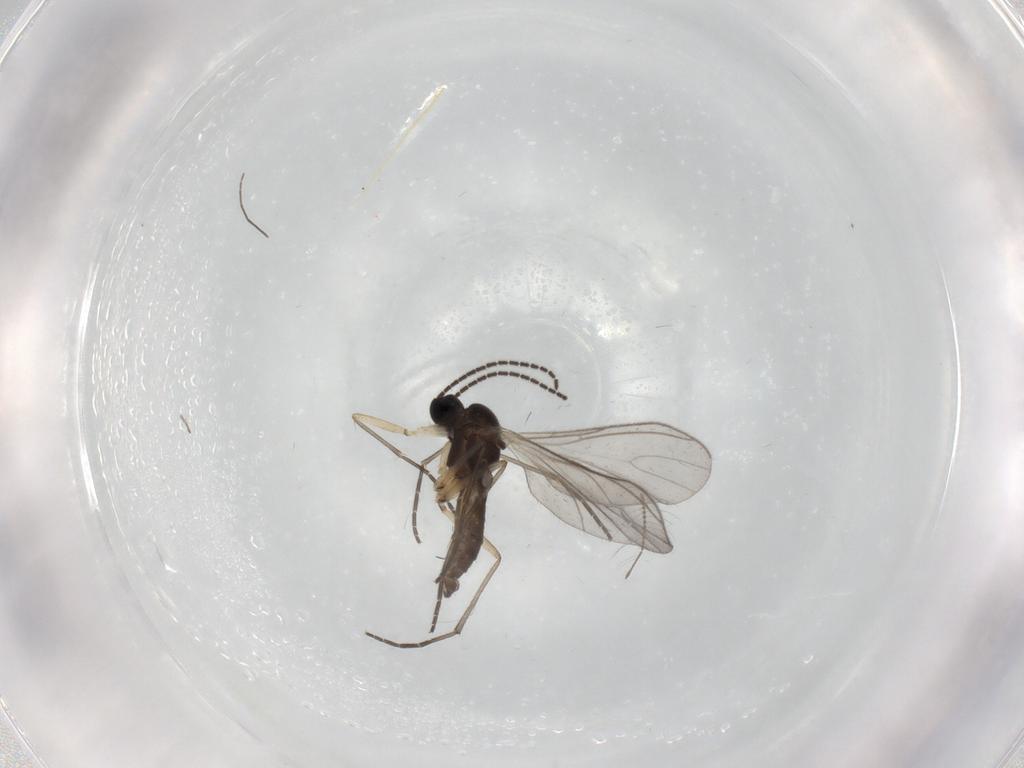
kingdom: Animalia
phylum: Arthropoda
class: Insecta
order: Diptera
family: Sciaridae
